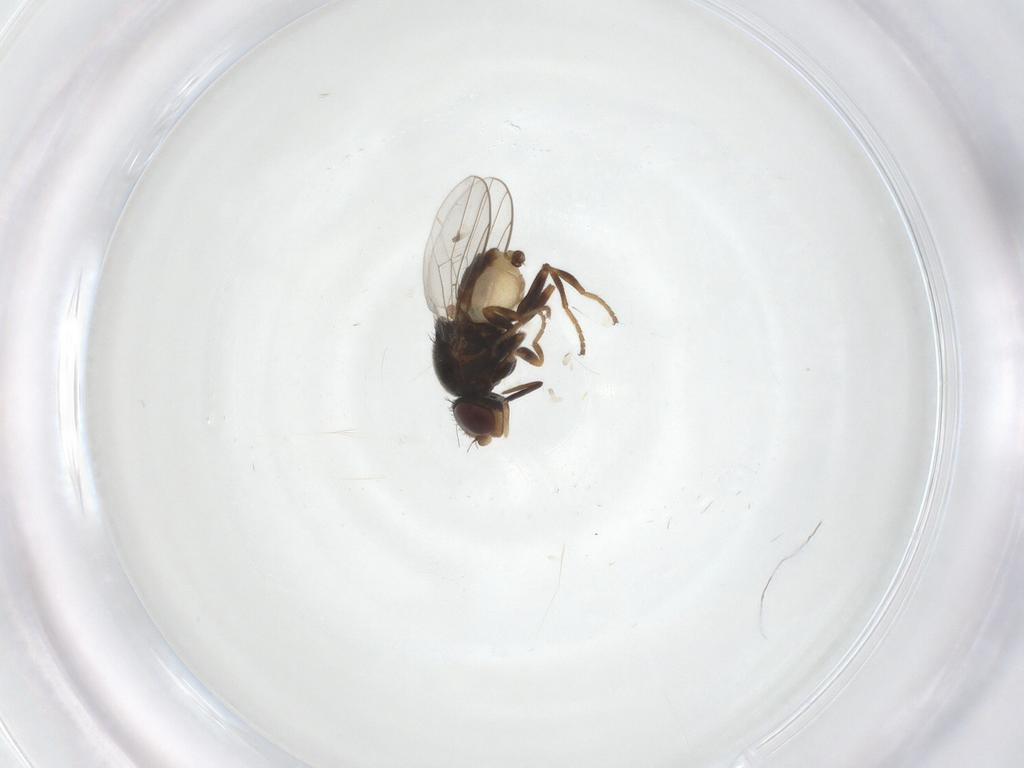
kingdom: Animalia
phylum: Arthropoda
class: Insecta
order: Diptera
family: Chloropidae
